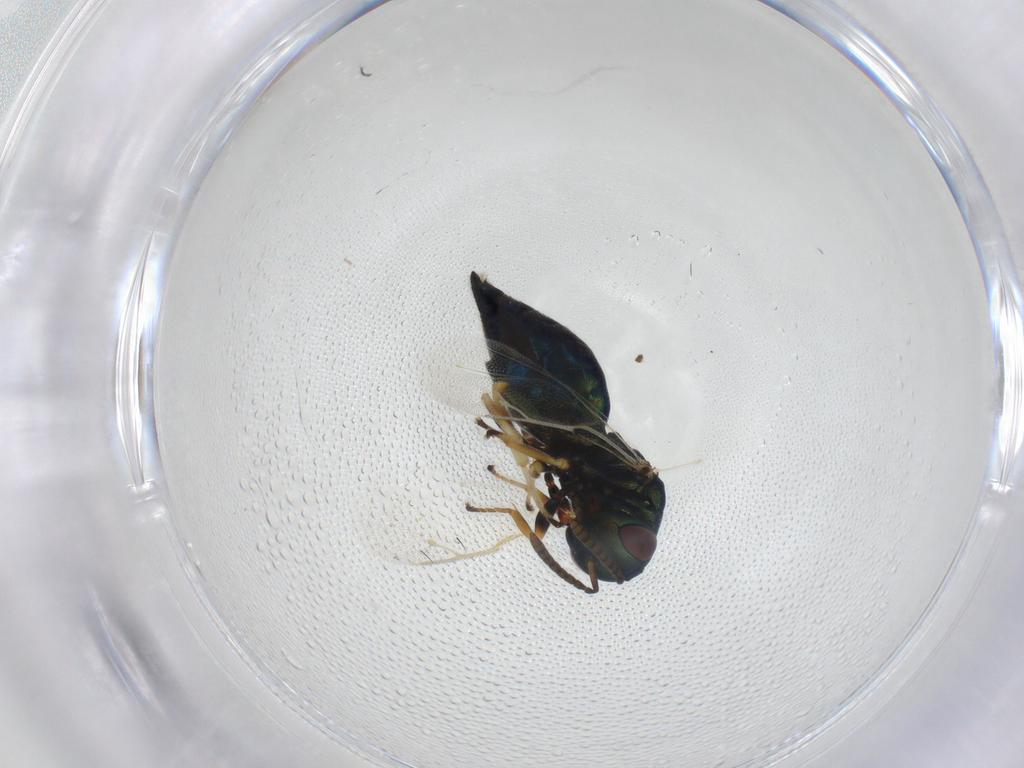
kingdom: Animalia
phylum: Arthropoda
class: Insecta
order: Hymenoptera
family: Pteromalidae
